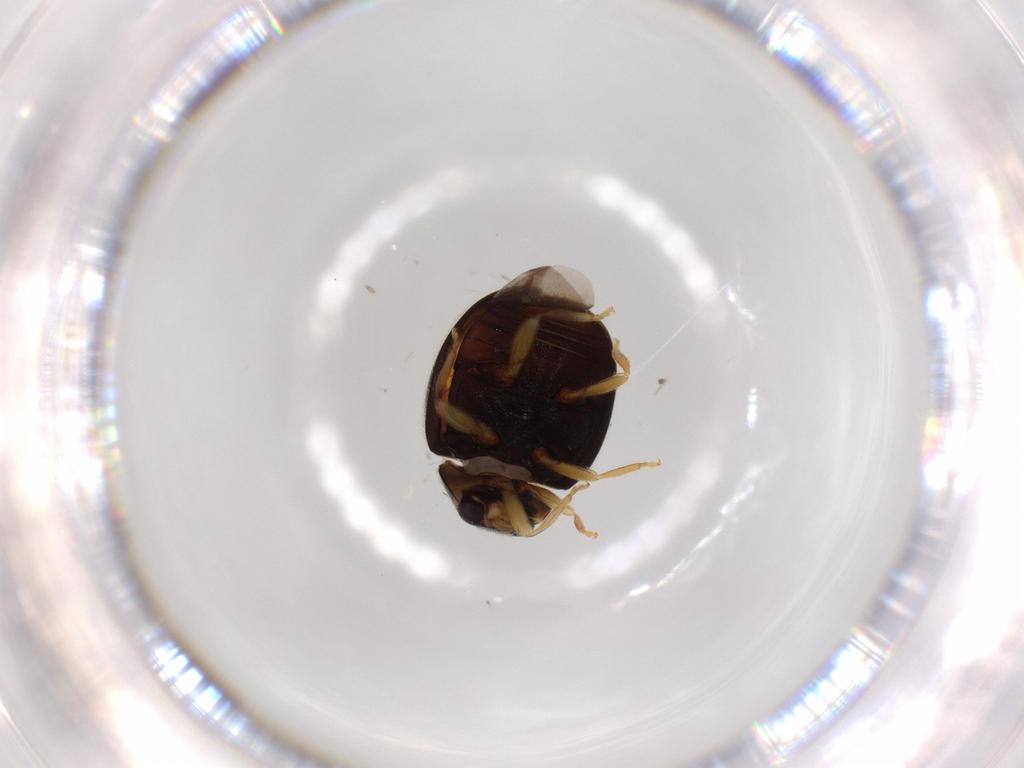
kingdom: Animalia
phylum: Arthropoda
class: Insecta
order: Coleoptera
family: Coccinellidae
